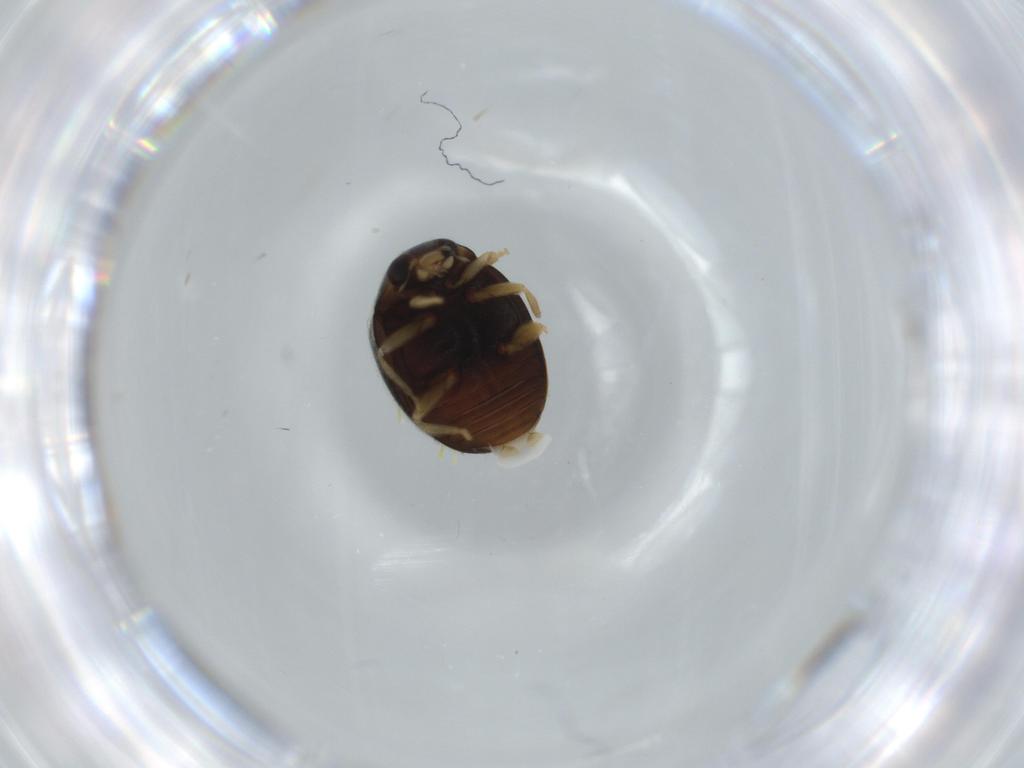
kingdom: Animalia
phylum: Arthropoda
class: Insecta
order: Coleoptera
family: Coccinellidae
